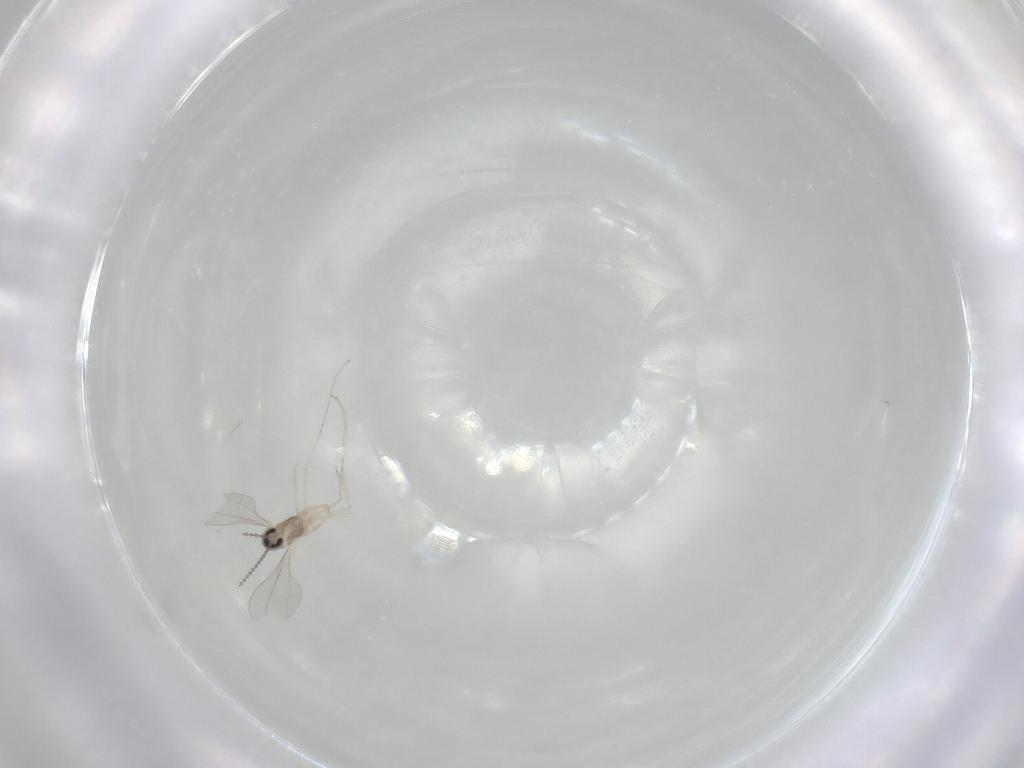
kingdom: Animalia
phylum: Arthropoda
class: Insecta
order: Diptera
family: Cecidomyiidae
